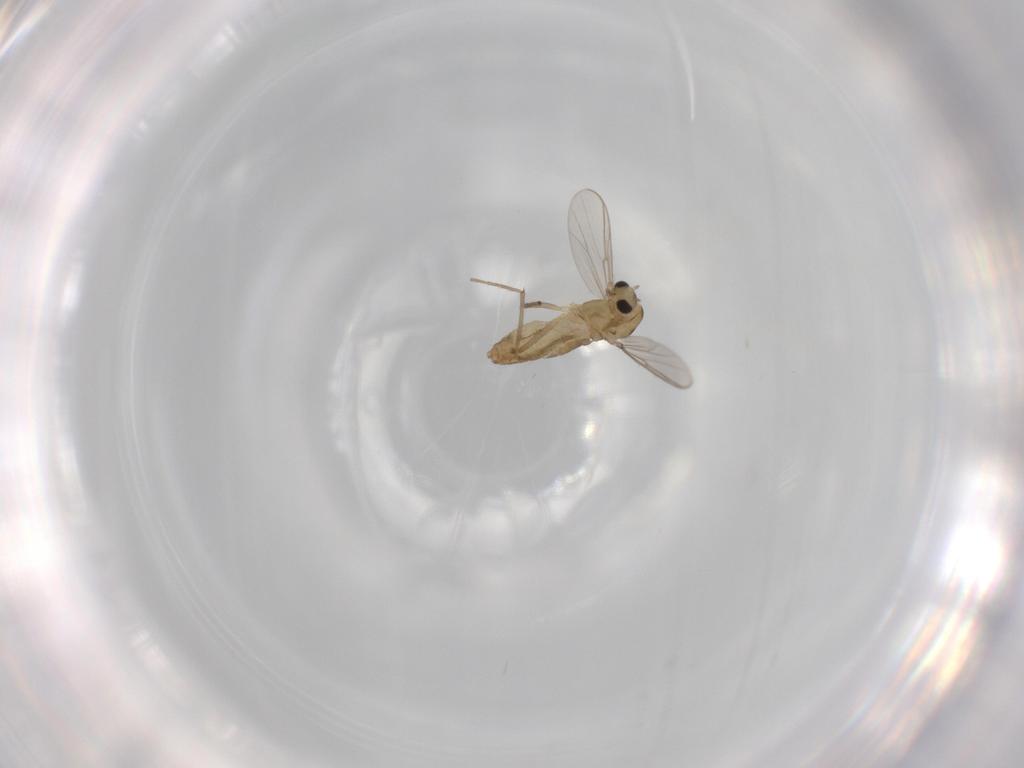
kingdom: Animalia
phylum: Arthropoda
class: Insecta
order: Diptera
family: Chironomidae
